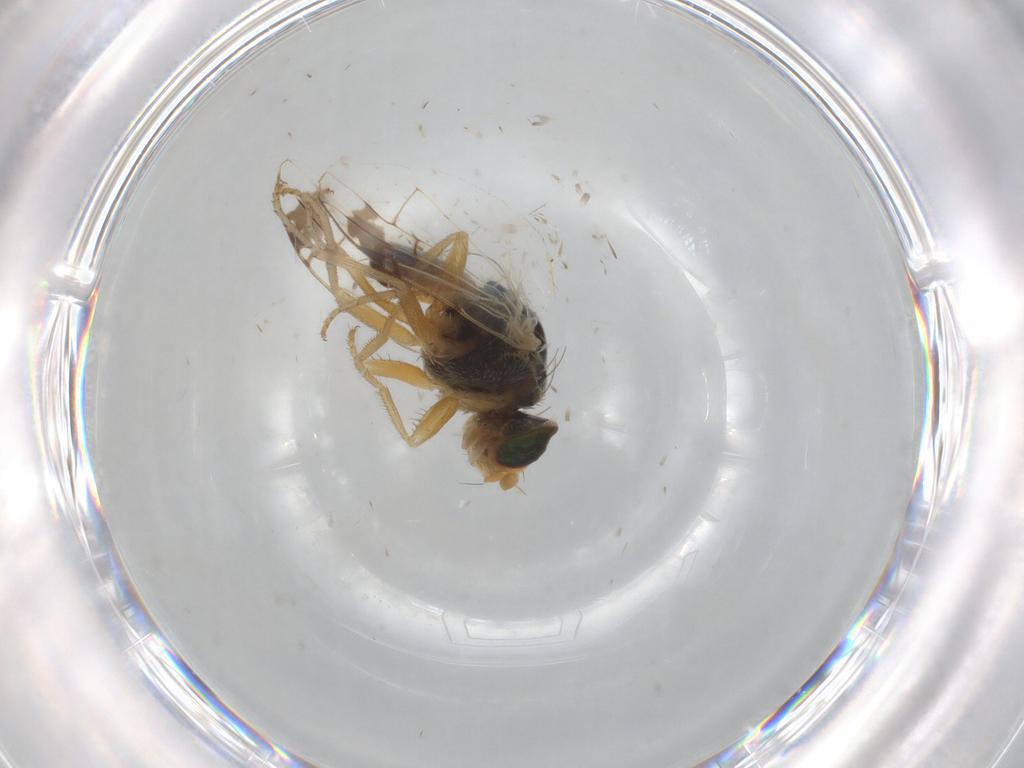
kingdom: Animalia
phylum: Arthropoda
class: Insecta
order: Diptera
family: Tephritidae
